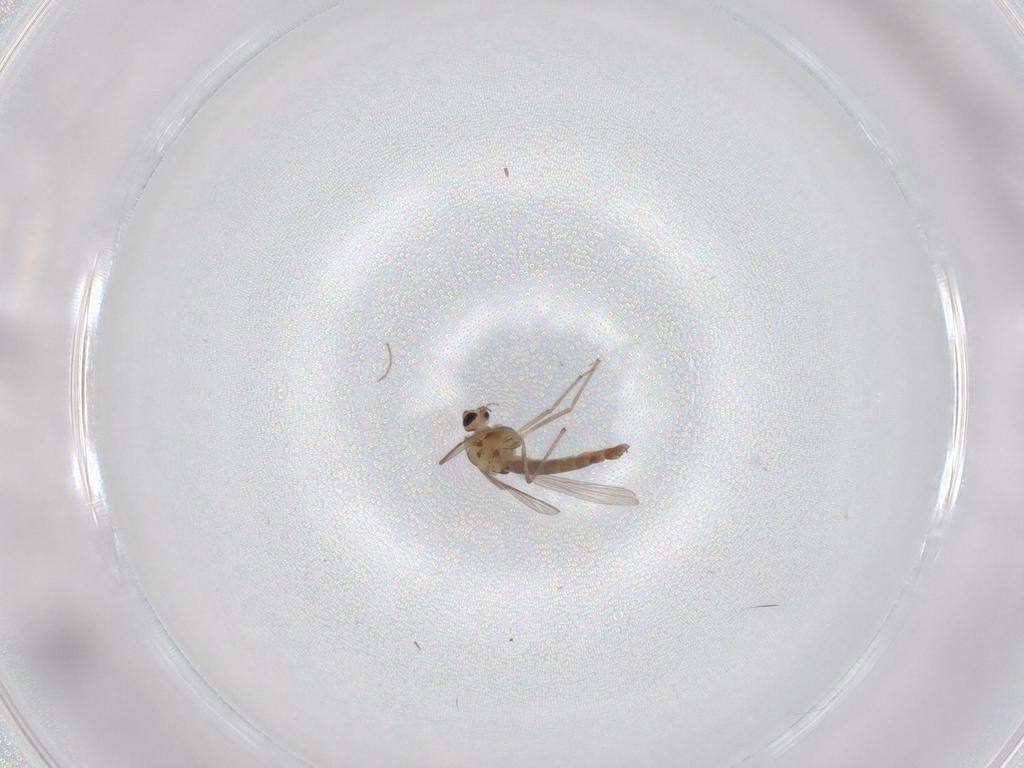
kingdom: Animalia
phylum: Arthropoda
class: Insecta
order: Diptera
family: Chironomidae
